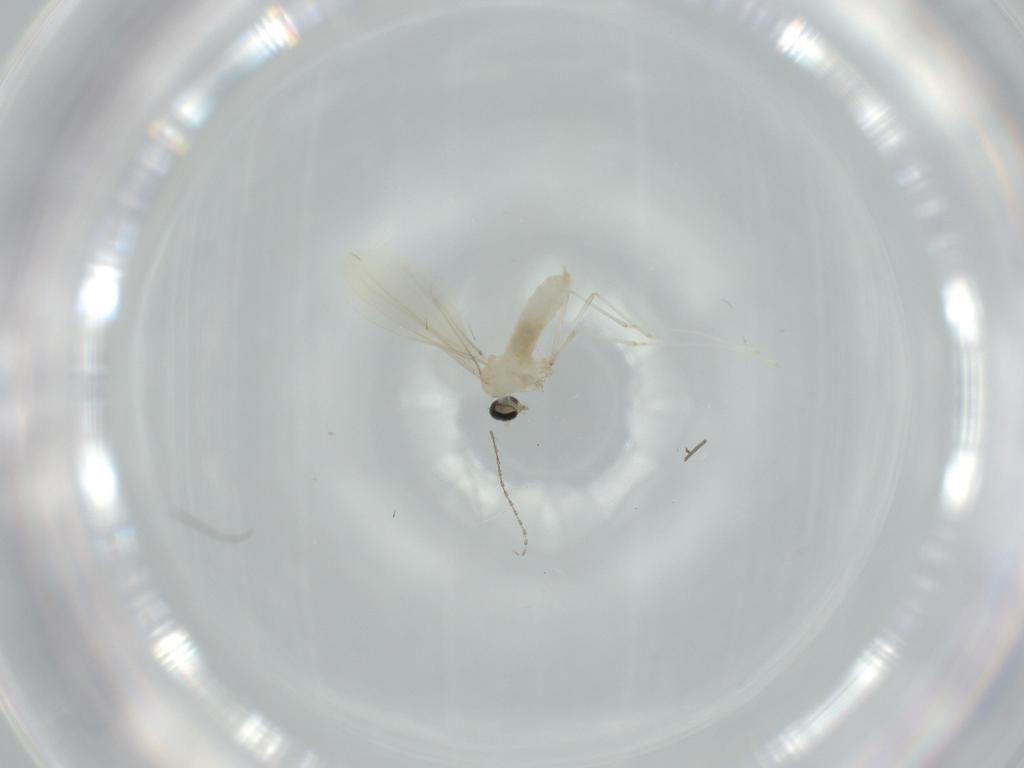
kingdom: Animalia
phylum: Arthropoda
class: Insecta
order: Diptera
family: Cecidomyiidae
